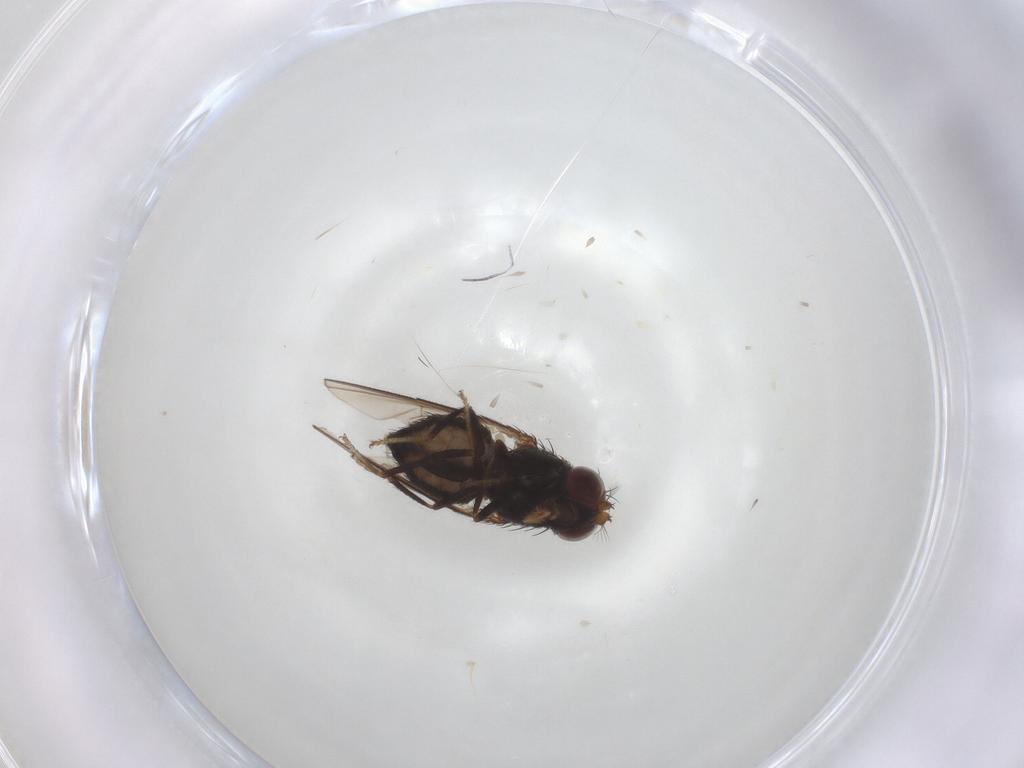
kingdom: Animalia
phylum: Arthropoda
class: Insecta
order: Diptera
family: Ephydridae
